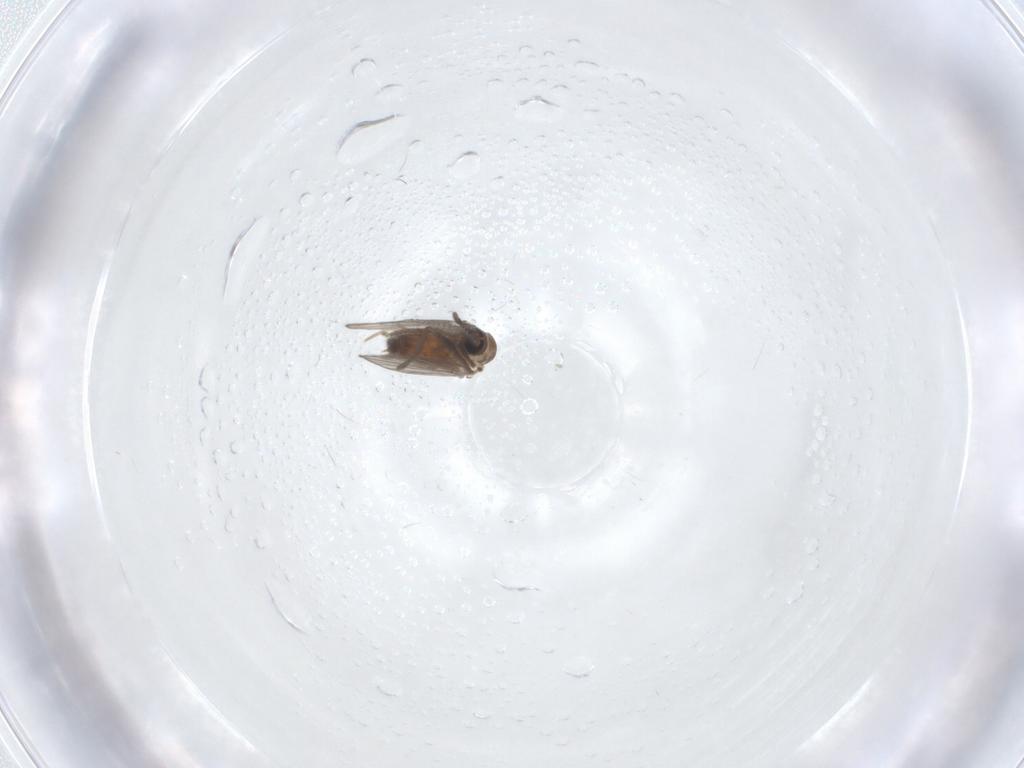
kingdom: Animalia
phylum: Arthropoda
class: Insecta
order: Diptera
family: Psychodidae
